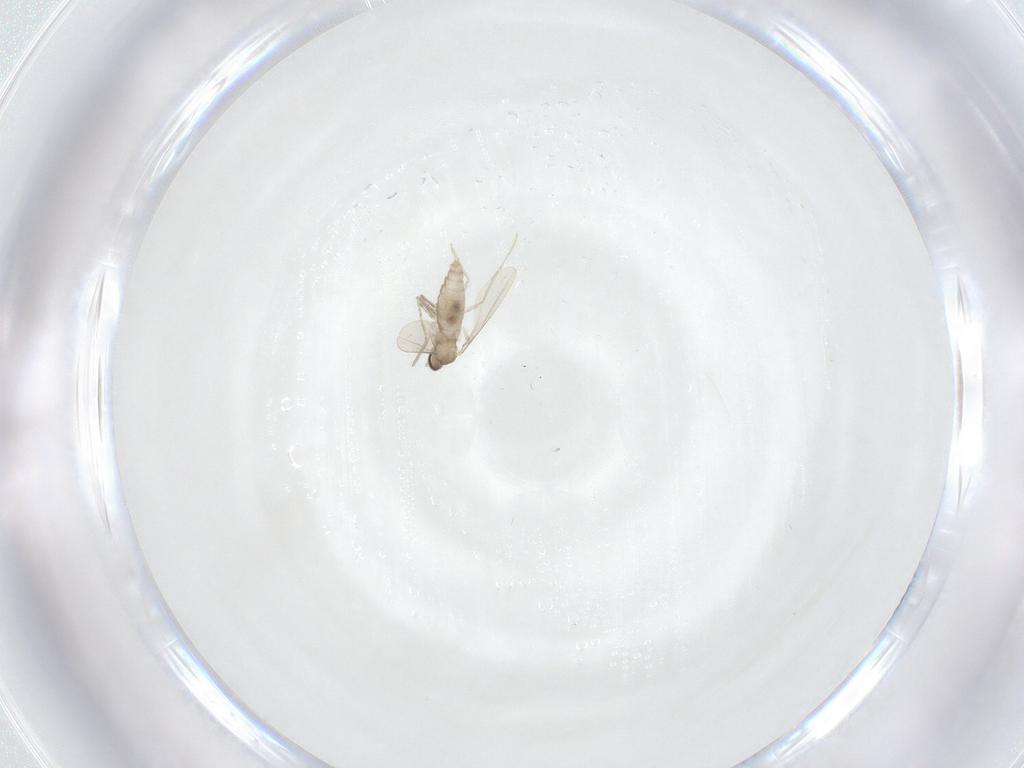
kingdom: Animalia
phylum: Arthropoda
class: Insecta
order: Diptera
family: Cecidomyiidae
